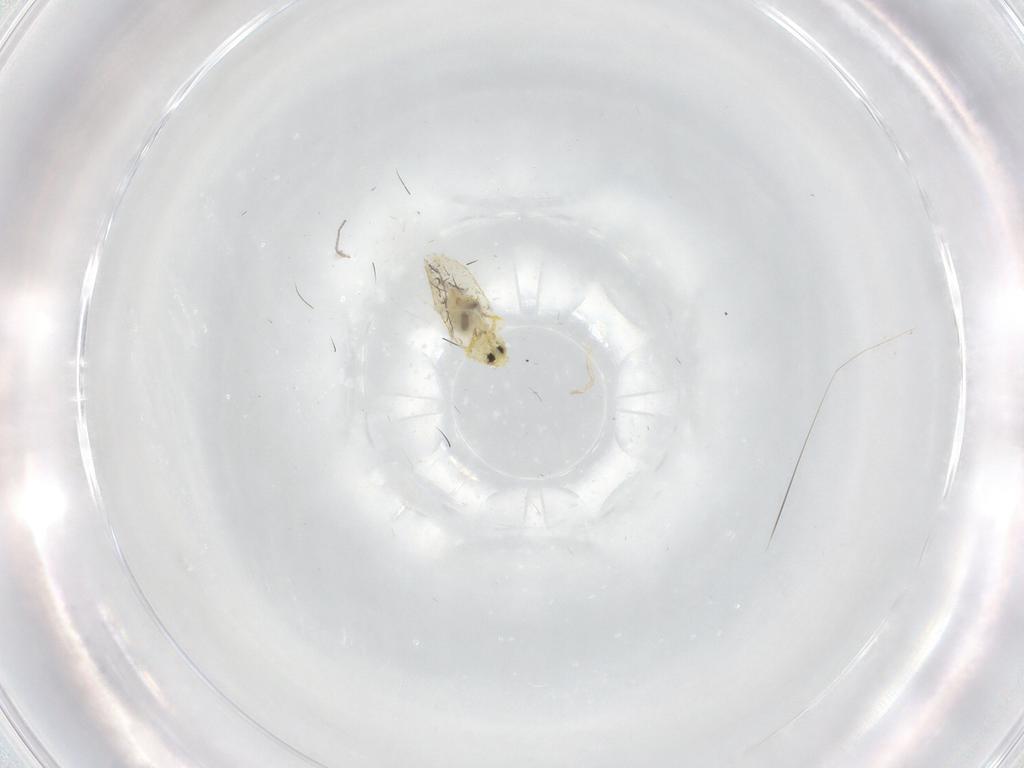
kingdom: Animalia
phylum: Arthropoda
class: Insecta
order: Hemiptera
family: Aleyrodidae
